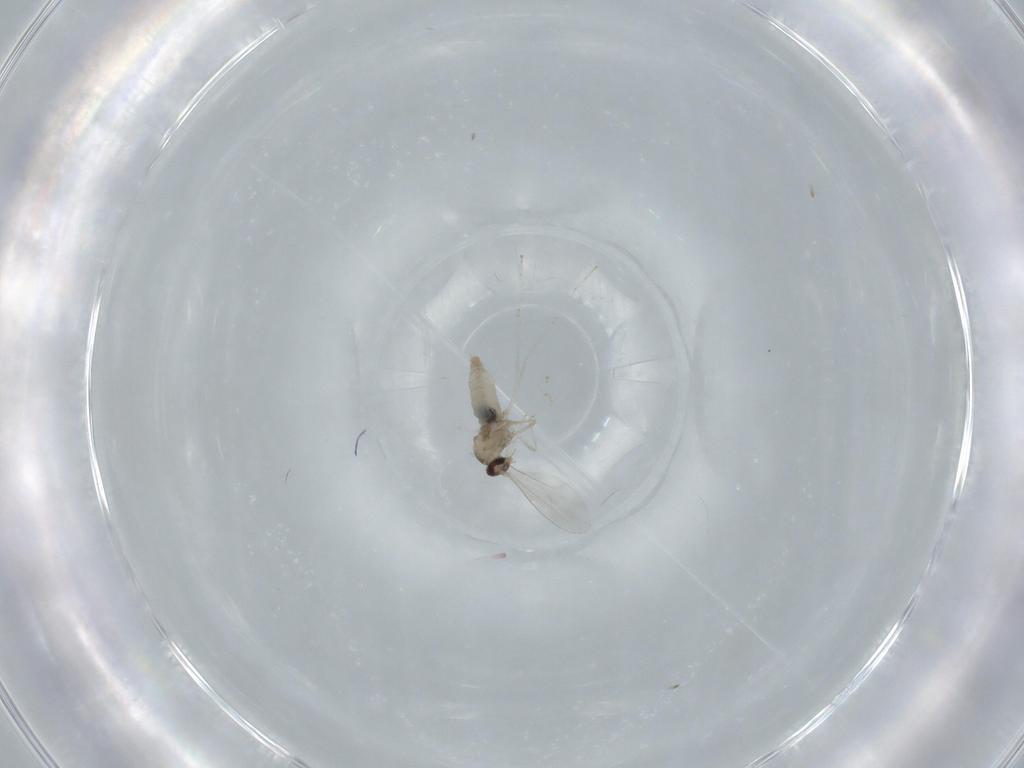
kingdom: Animalia
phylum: Arthropoda
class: Insecta
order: Diptera
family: Cecidomyiidae
